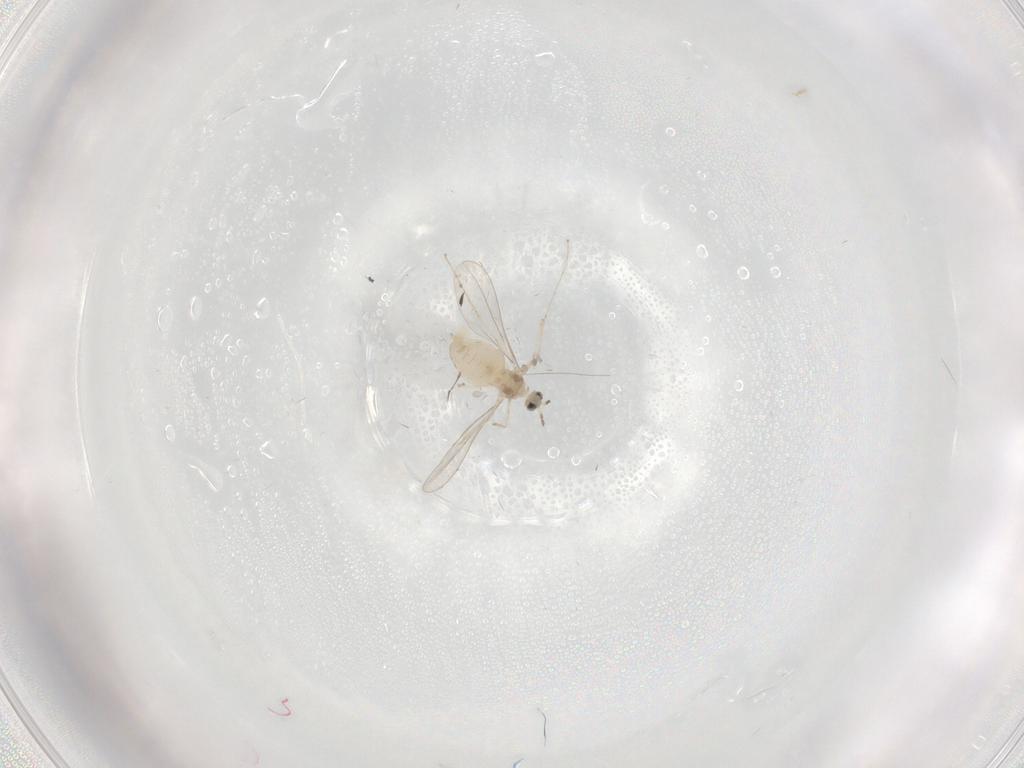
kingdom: Animalia
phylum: Arthropoda
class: Insecta
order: Diptera
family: Cecidomyiidae
